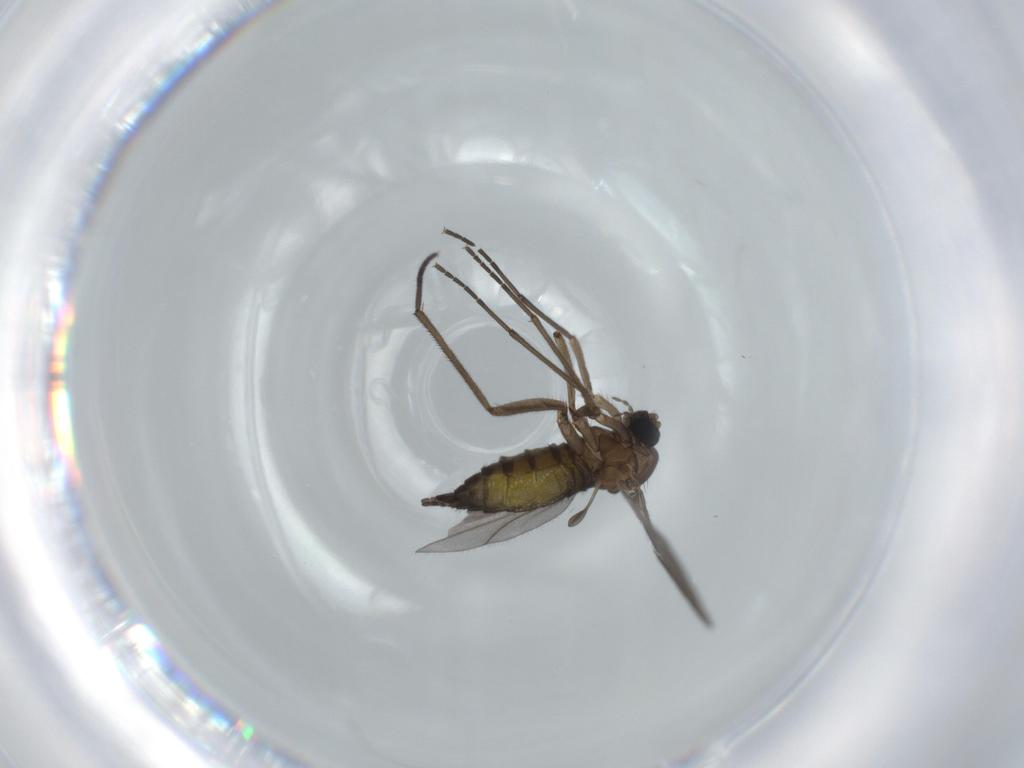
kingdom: Animalia
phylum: Arthropoda
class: Insecta
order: Diptera
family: Sciaridae
